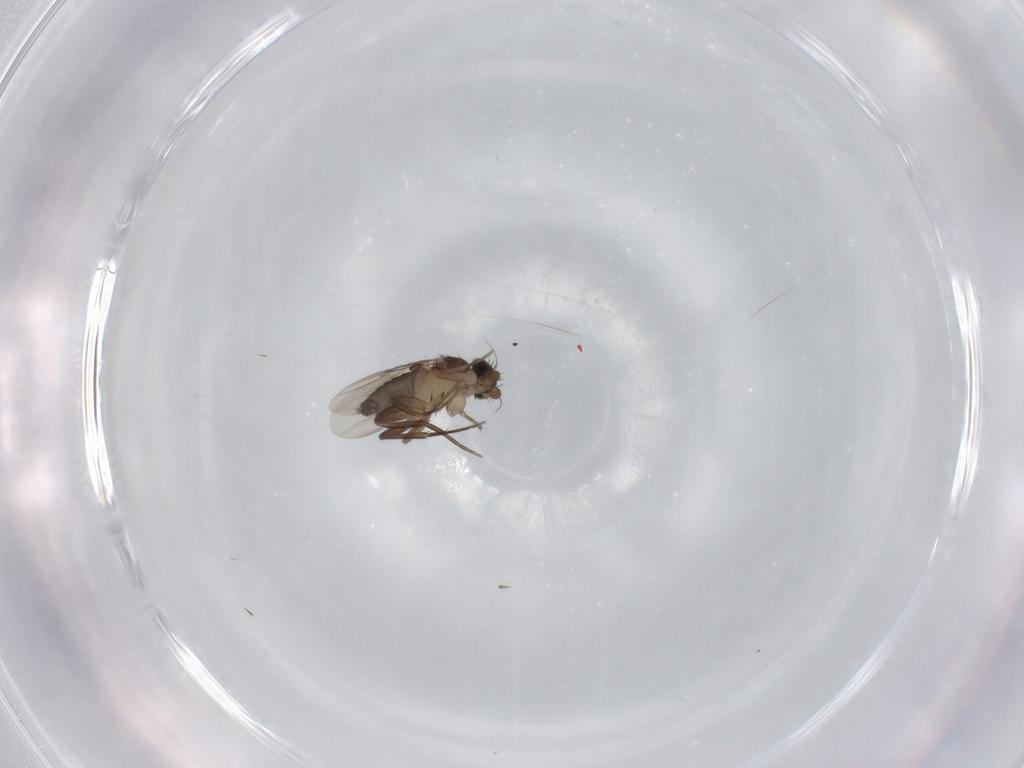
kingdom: Animalia
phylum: Arthropoda
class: Insecta
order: Diptera
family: Phoridae
